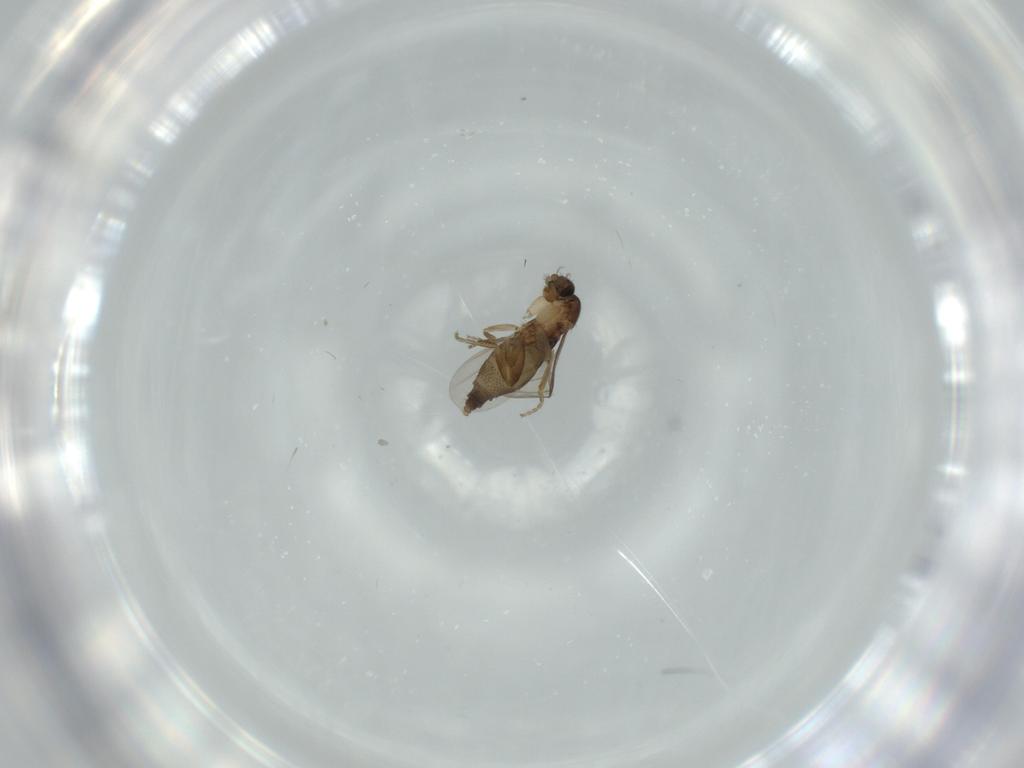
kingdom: Animalia
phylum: Arthropoda
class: Insecta
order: Diptera
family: Phoridae
